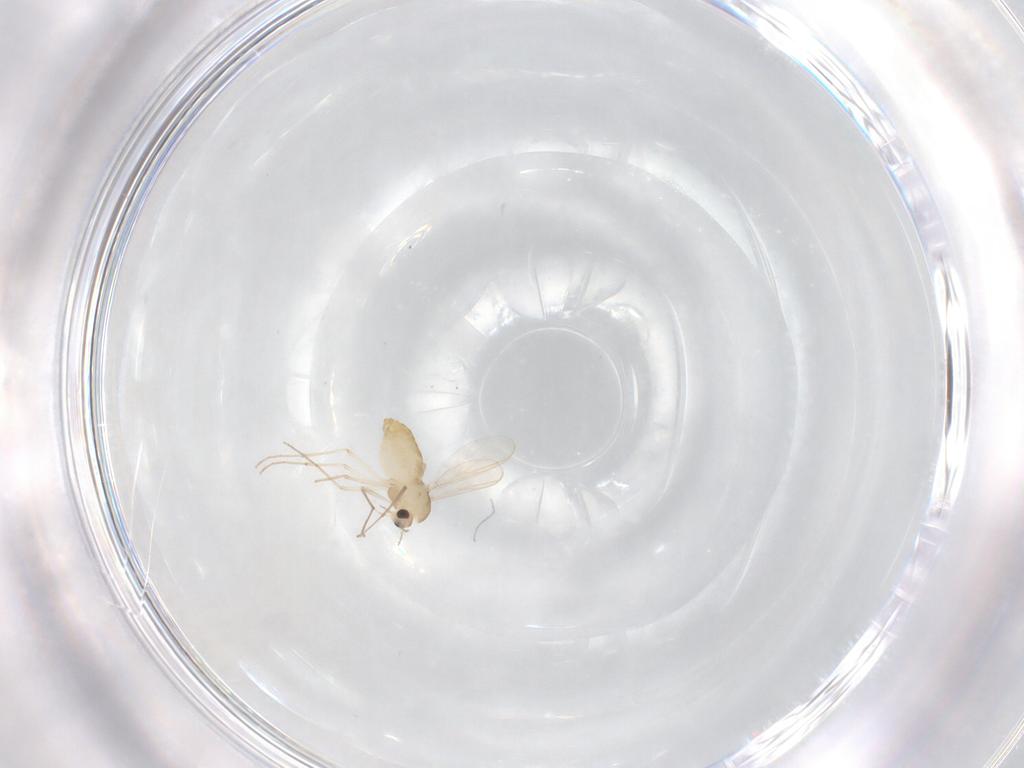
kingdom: Animalia
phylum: Arthropoda
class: Insecta
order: Diptera
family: Chironomidae
